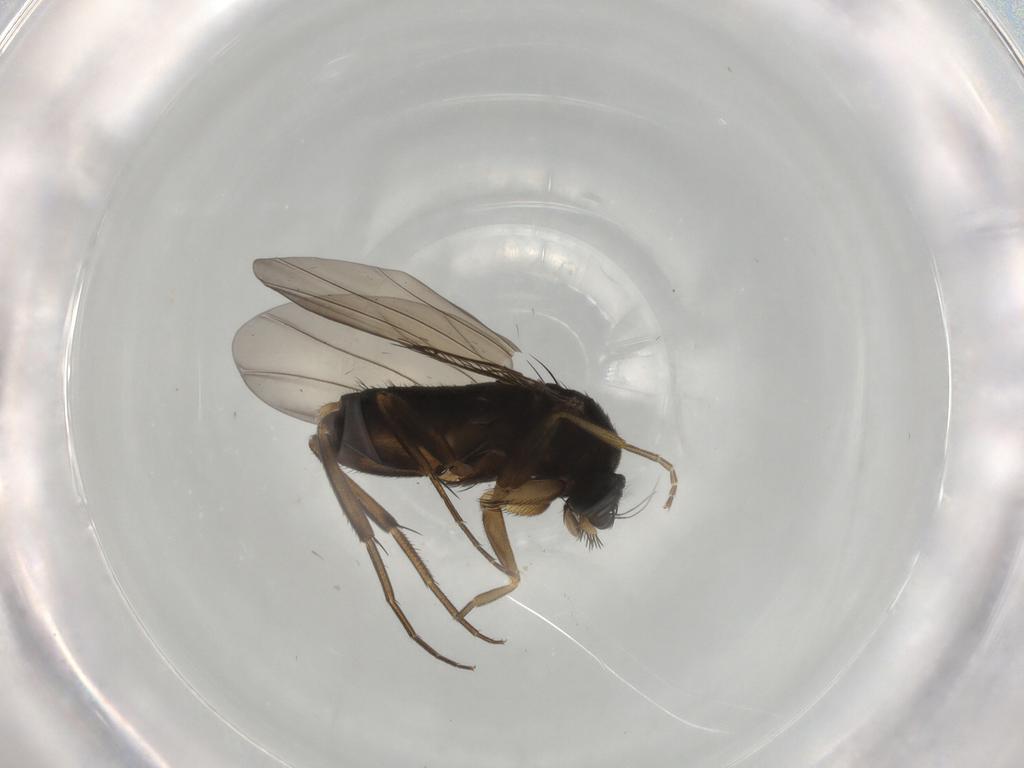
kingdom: Animalia
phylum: Arthropoda
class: Insecta
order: Diptera
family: Phoridae
